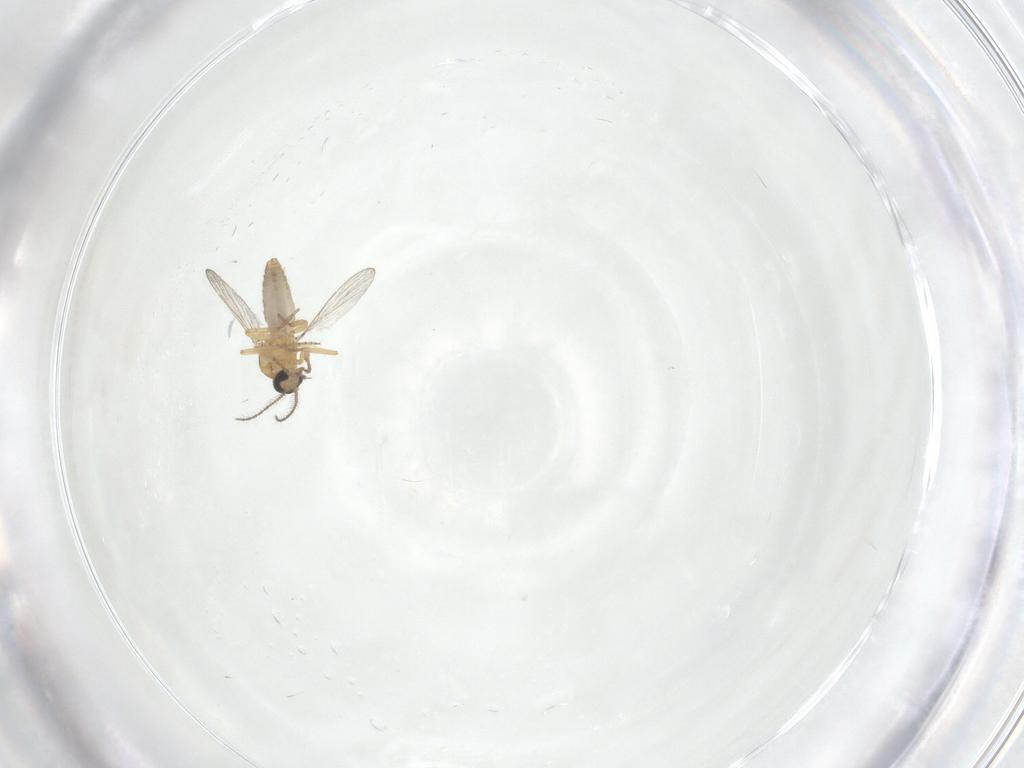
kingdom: Animalia
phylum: Arthropoda
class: Insecta
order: Diptera
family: Ceratopogonidae
